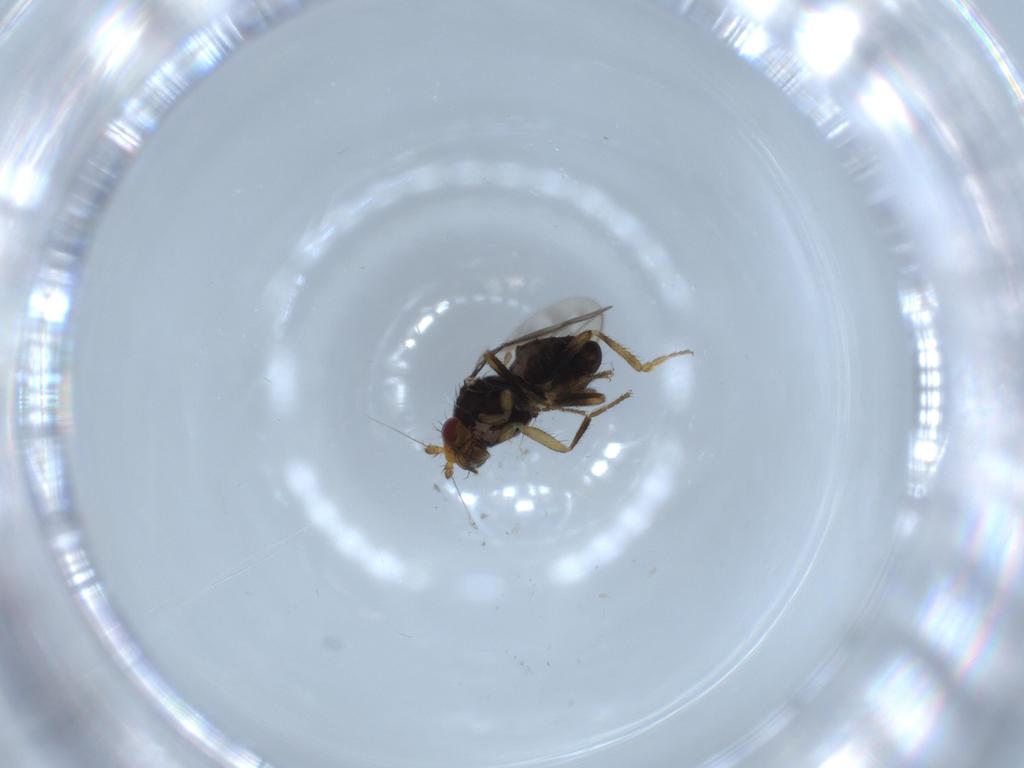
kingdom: Animalia
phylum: Arthropoda
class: Insecta
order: Diptera
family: Sphaeroceridae
